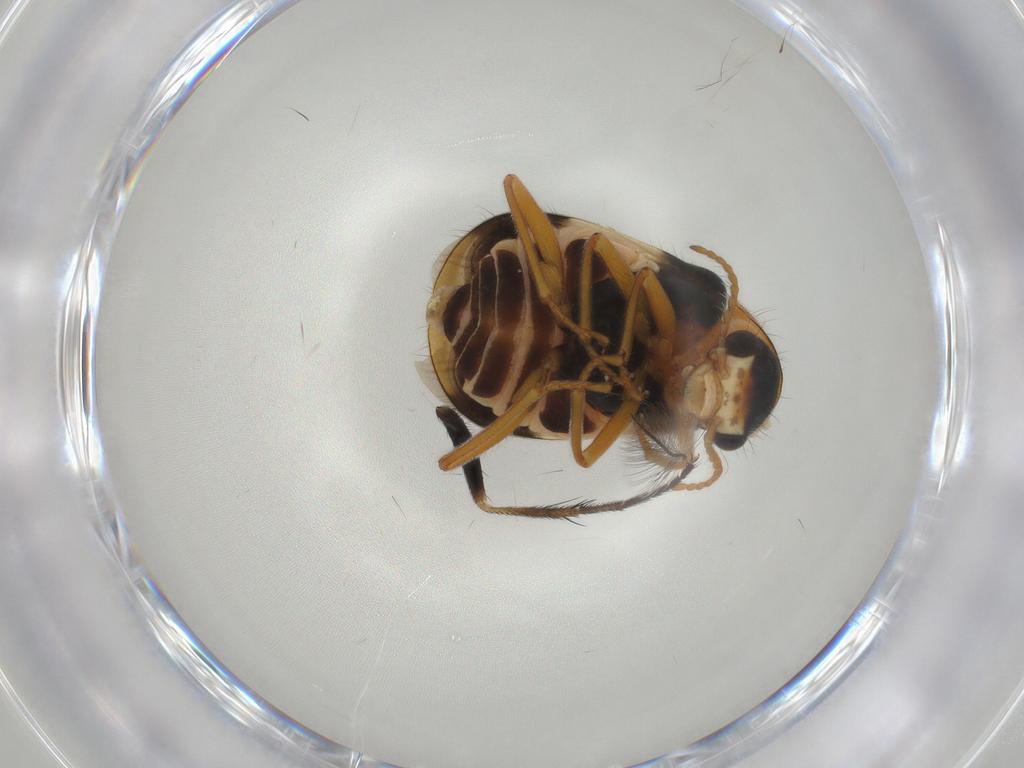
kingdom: Animalia
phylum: Arthropoda
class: Insecta
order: Coleoptera
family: Melyridae
